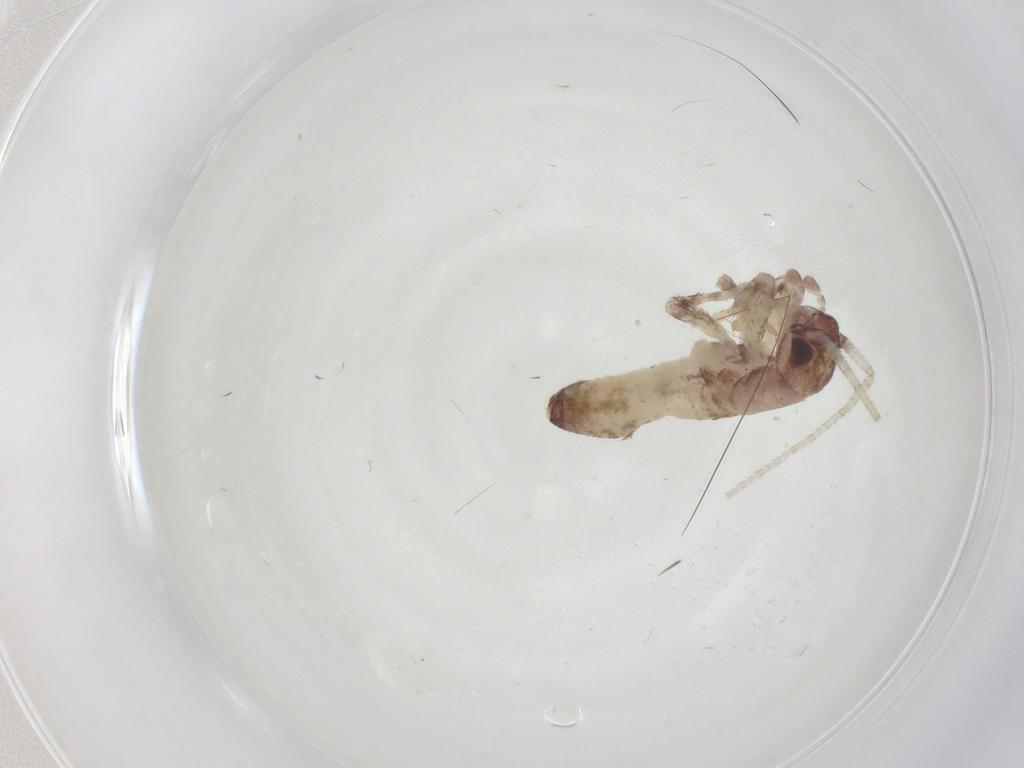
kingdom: Animalia
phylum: Arthropoda
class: Insecta
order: Orthoptera
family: Gryllidae
